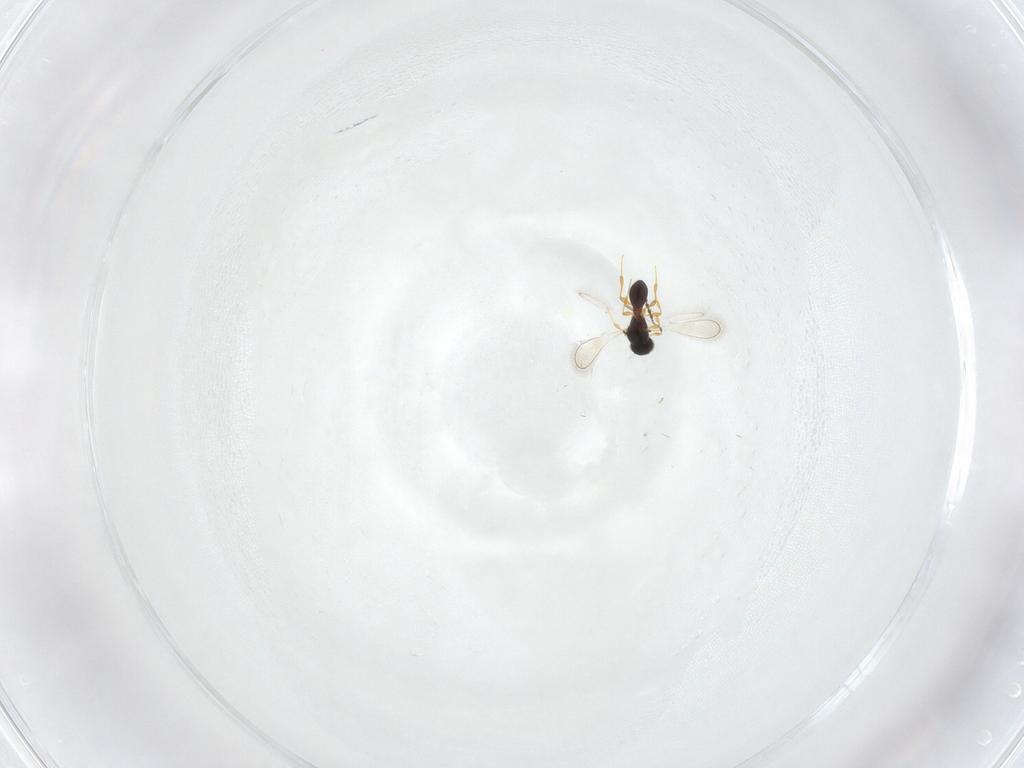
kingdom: Animalia
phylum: Arthropoda
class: Insecta
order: Hymenoptera
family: Platygastridae
